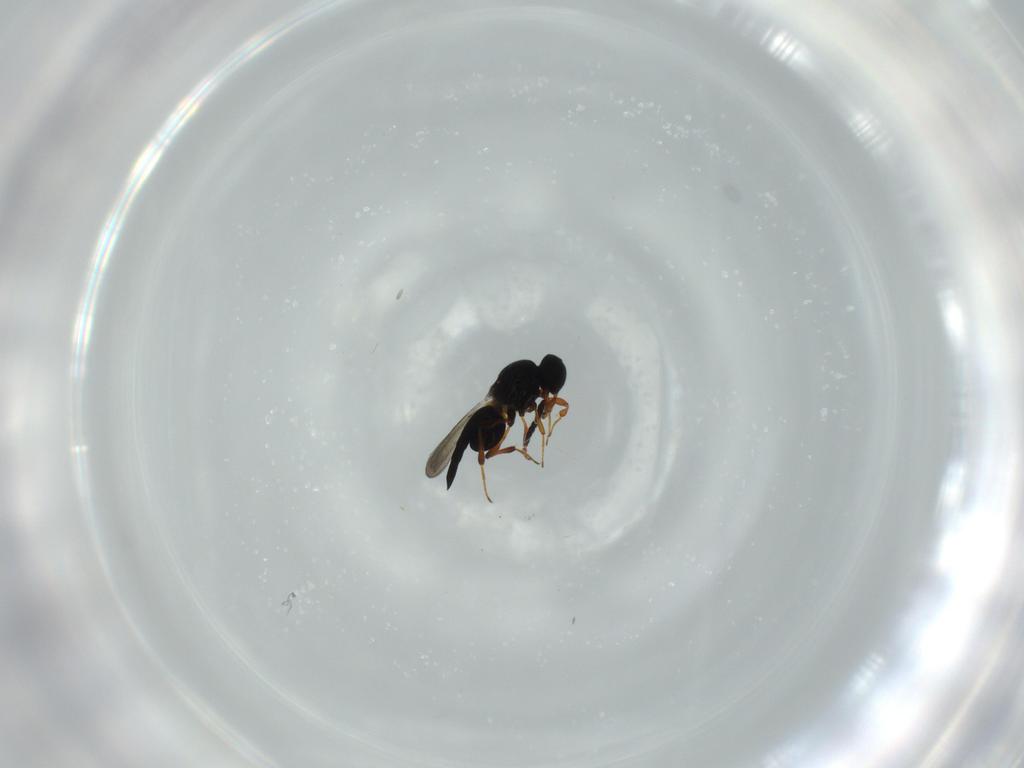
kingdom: Animalia
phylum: Arthropoda
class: Insecta
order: Hymenoptera
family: Platygastridae
